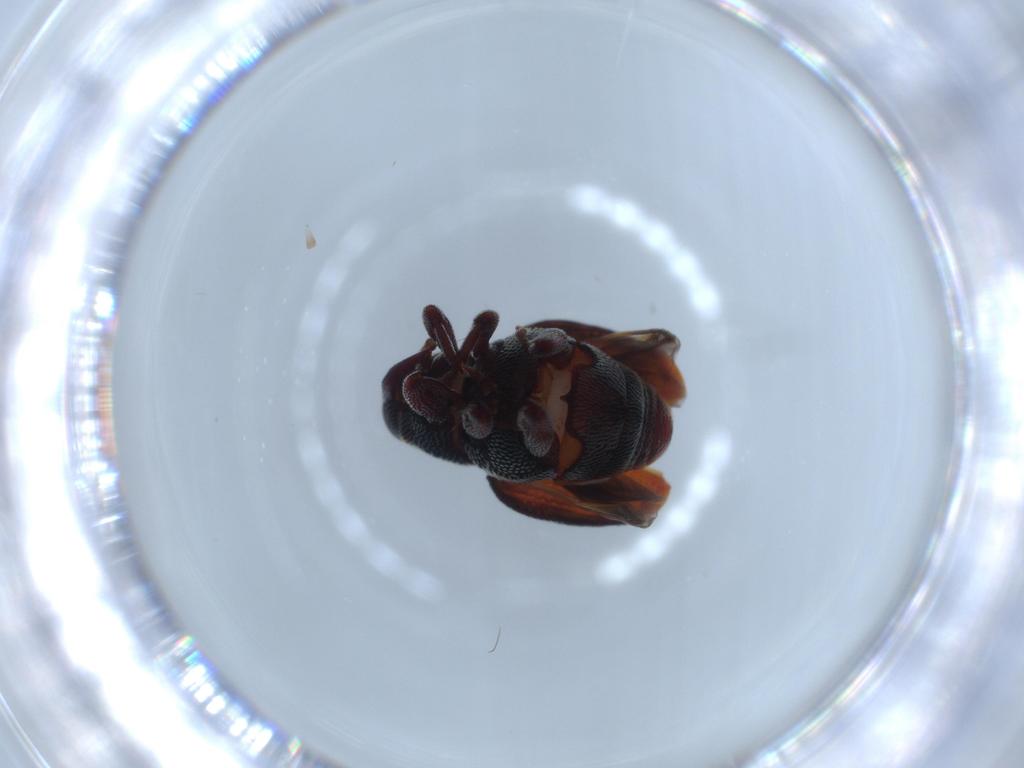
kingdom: Animalia
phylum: Arthropoda
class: Insecta
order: Coleoptera
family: Curculionidae
